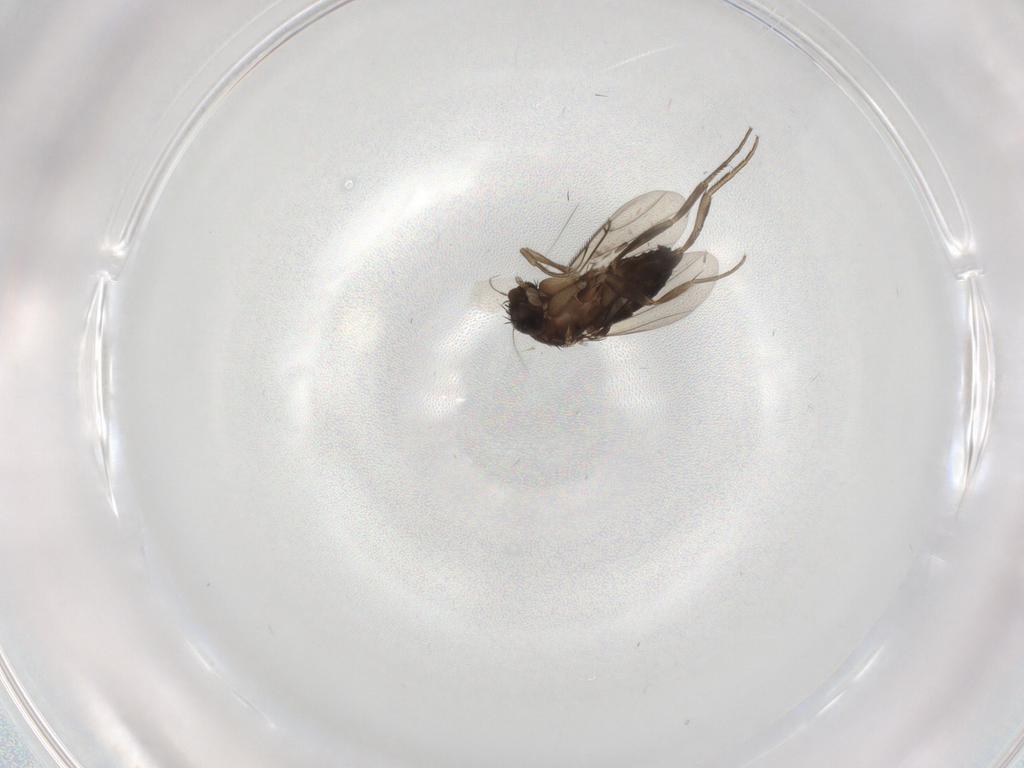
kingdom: Animalia
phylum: Arthropoda
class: Insecta
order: Diptera
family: Phoridae
